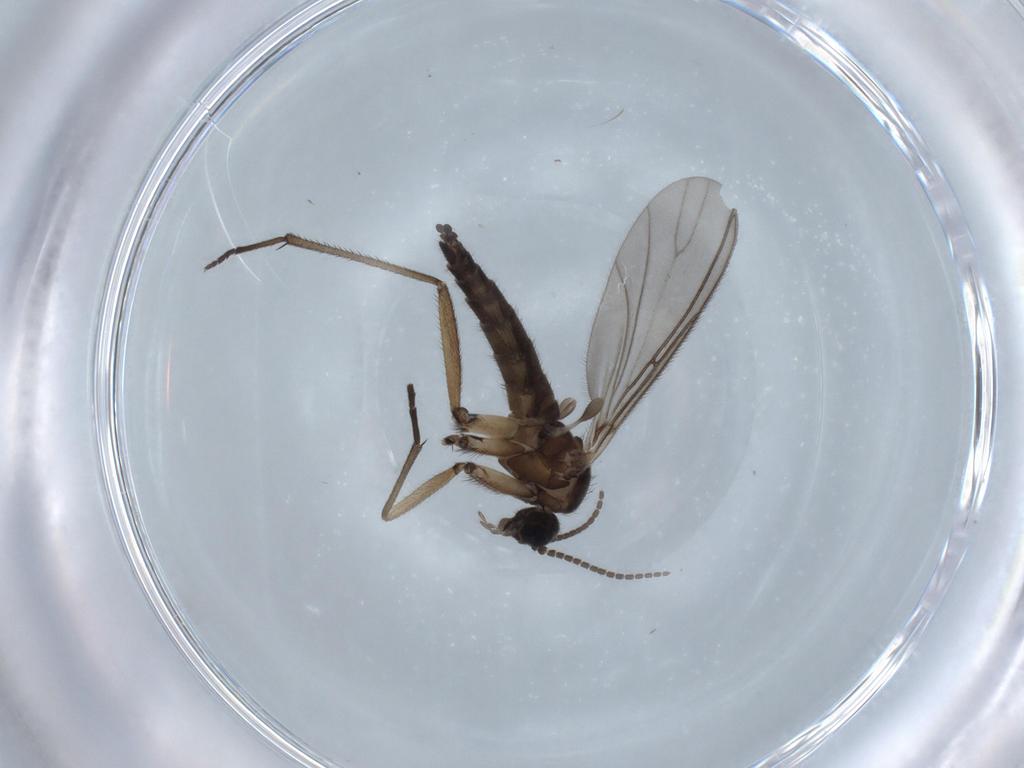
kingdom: Animalia
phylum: Arthropoda
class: Insecta
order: Diptera
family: Sciaridae
